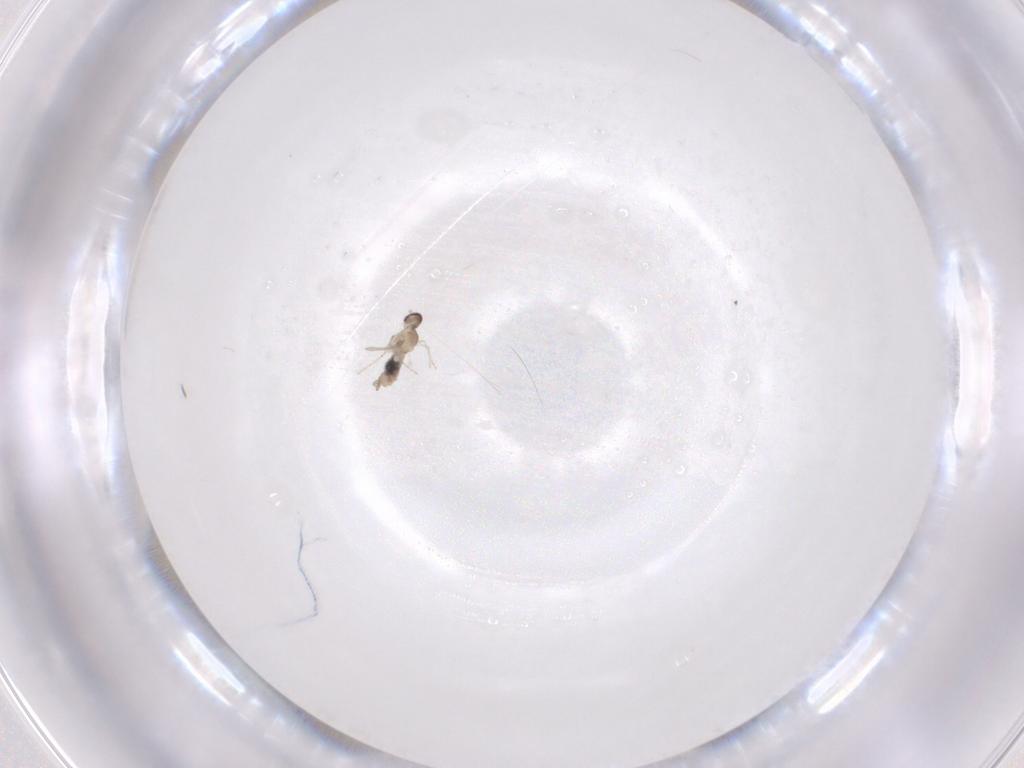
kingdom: Animalia
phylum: Arthropoda
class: Insecta
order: Diptera
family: Cecidomyiidae
